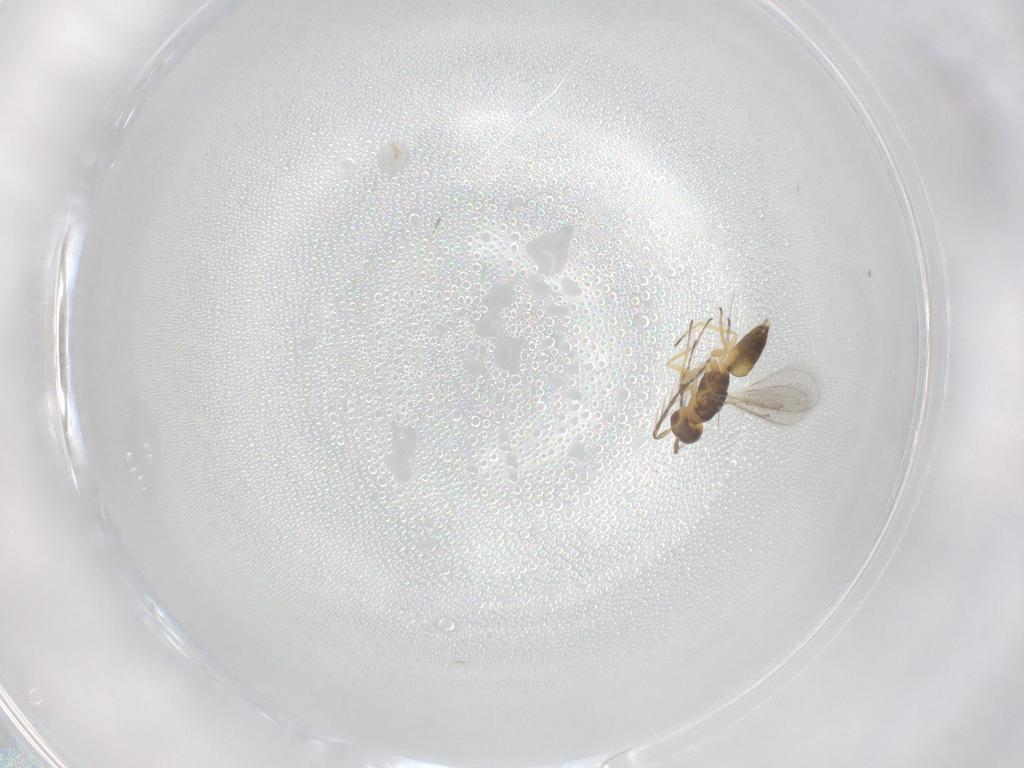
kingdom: Animalia
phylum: Arthropoda
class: Insecta
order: Hymenoptera
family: Eulophidae
